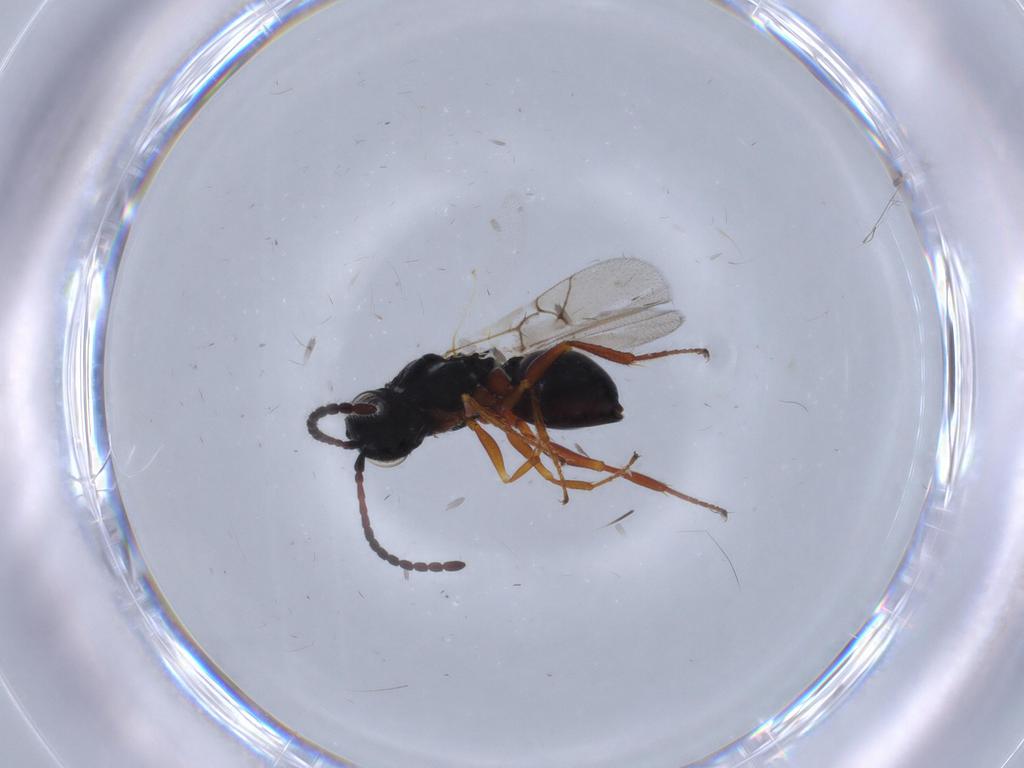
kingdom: Animalia
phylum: Arthropoda
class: Insecta
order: Hymenoptera
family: Figitidae
